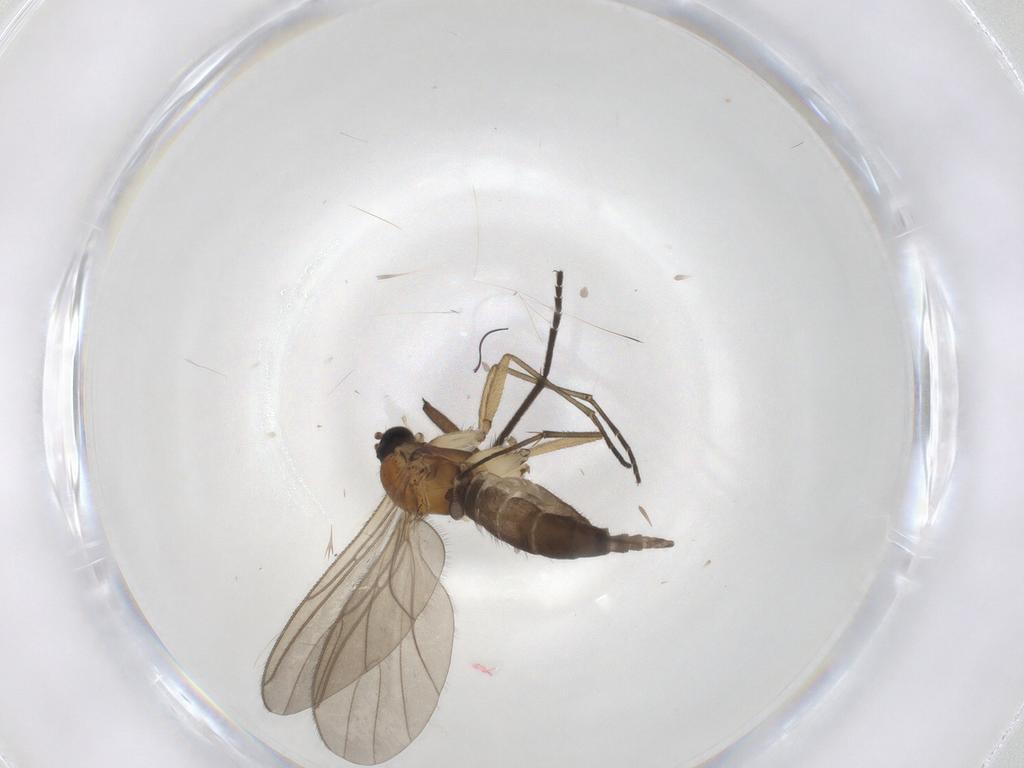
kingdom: Animalia
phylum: Arthropoda
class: Insecta
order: Diptera
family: Sciaridae
